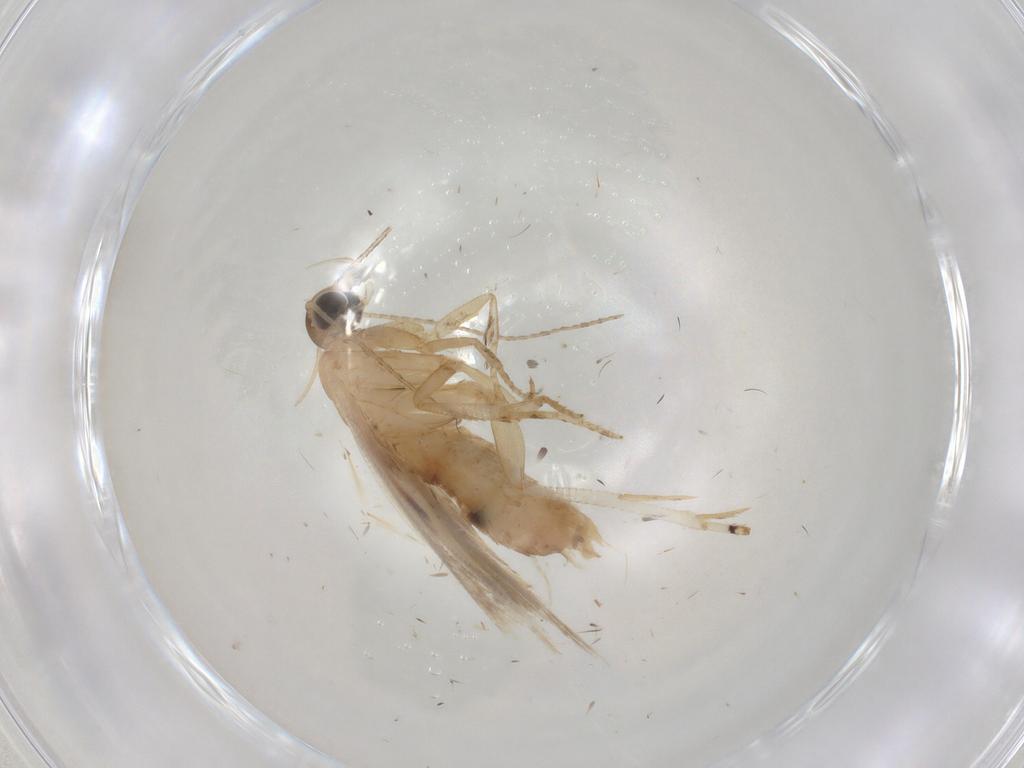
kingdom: Animalia
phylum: Arthropoda
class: Insecta
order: Lepidoptera
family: Gelechiidae
